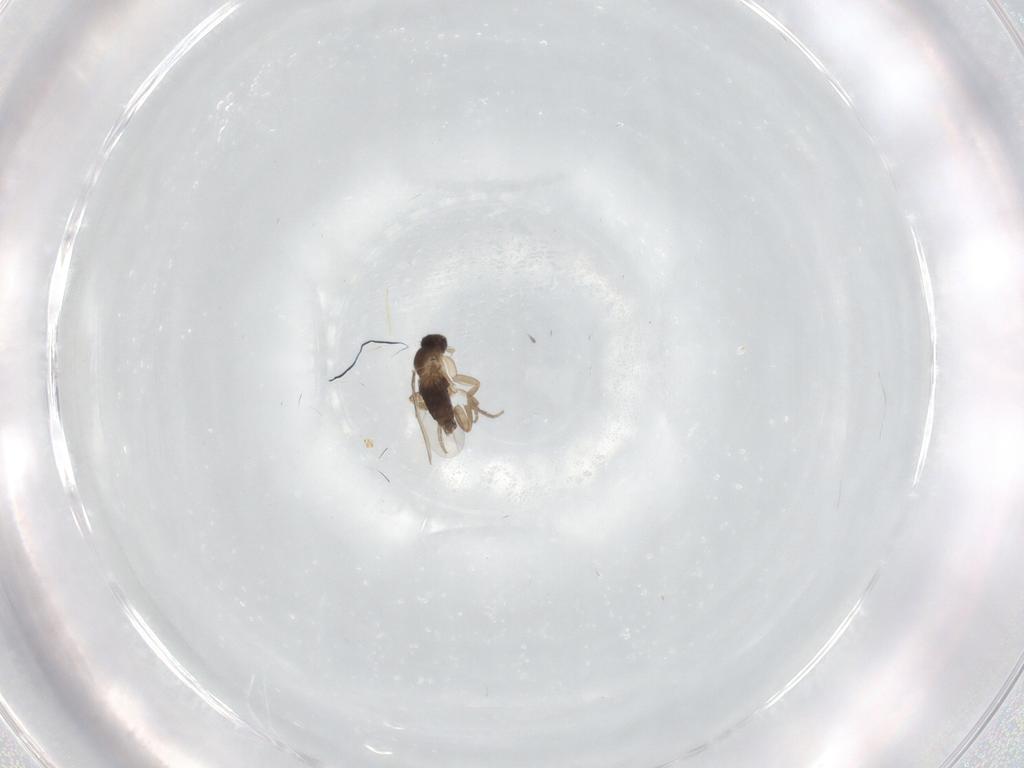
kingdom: Animalia
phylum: Arthropoda
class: Insecta
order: Diptera
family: Phoridae
